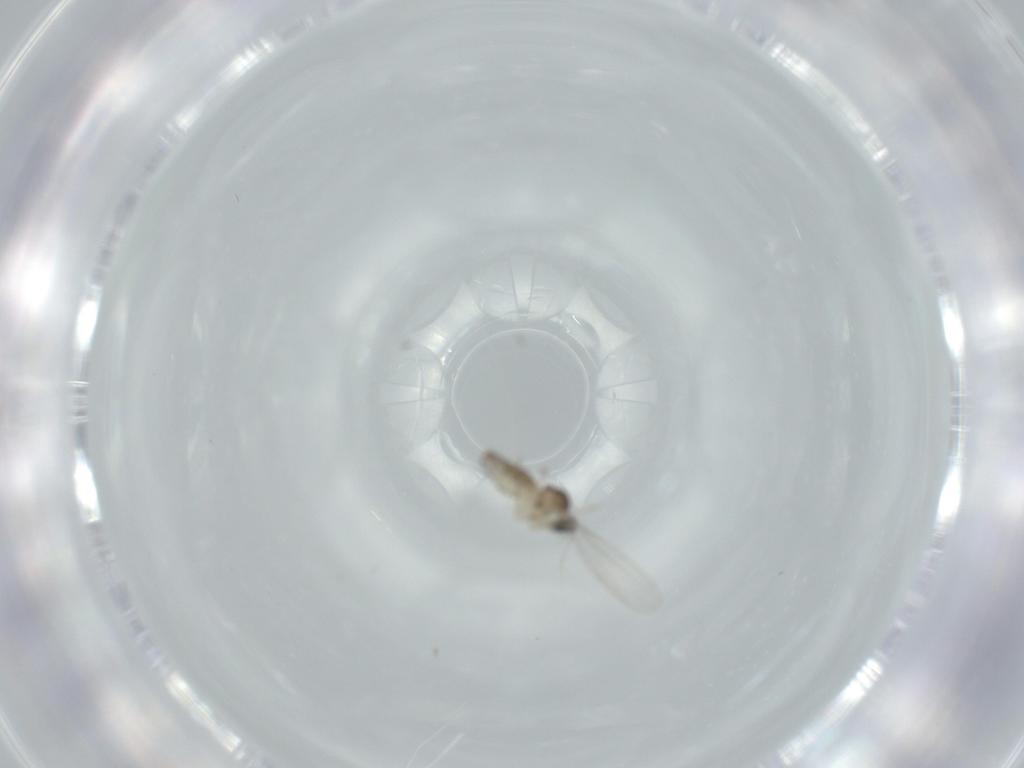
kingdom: Animalia
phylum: Arthropoda
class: Insecta
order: Diptera
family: Cecidomyiidae
